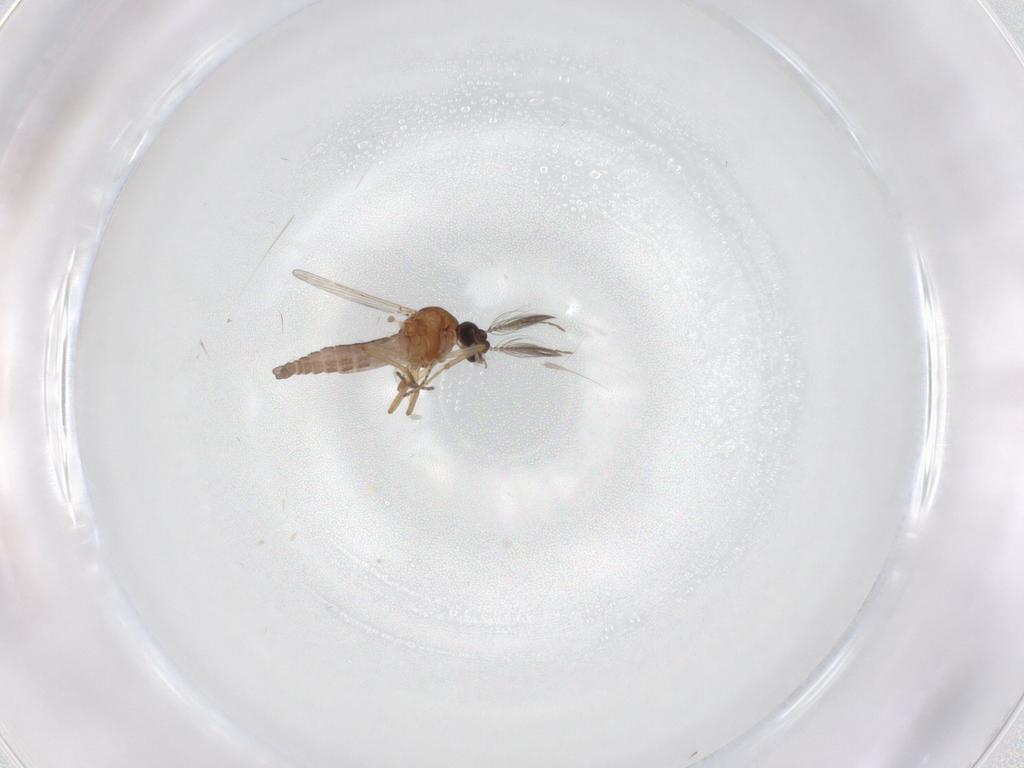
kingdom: Animalia
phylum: Arthropoda
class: Insecta
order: Diptera
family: Ceratopogonidae
